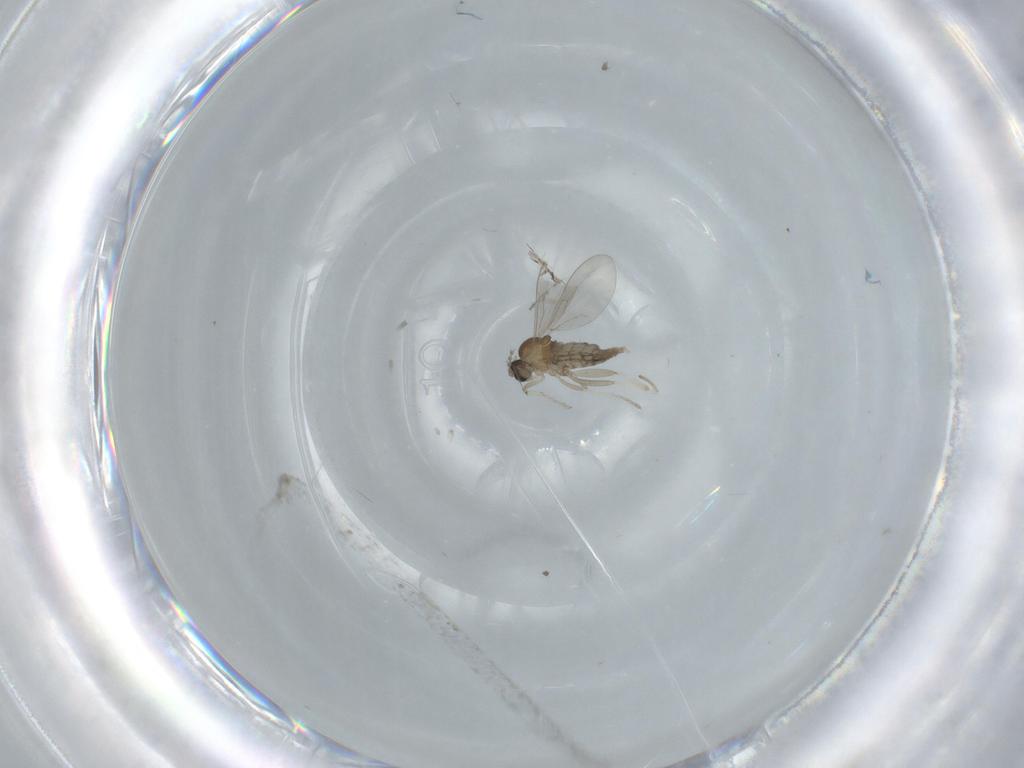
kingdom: Animalia
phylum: Arthropoda
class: Insecta
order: Diptera
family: Cecidomyiidae
